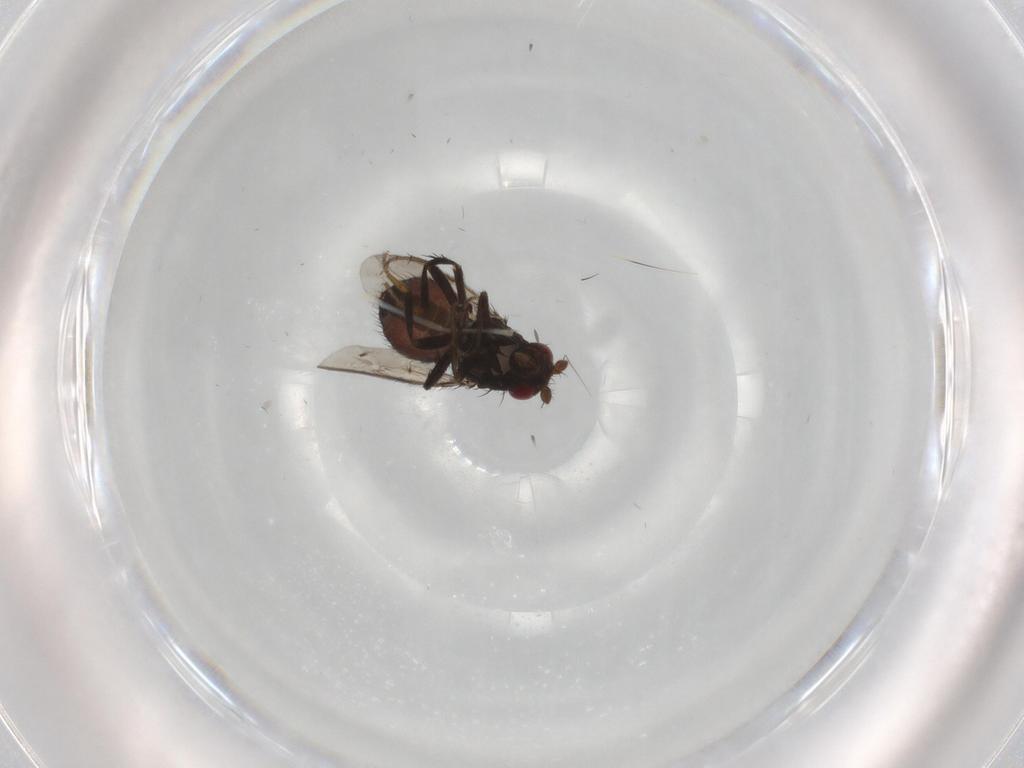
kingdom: Animalia
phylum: Arthropoda
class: Insecta
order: Diptera
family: Sphaeroceridae
